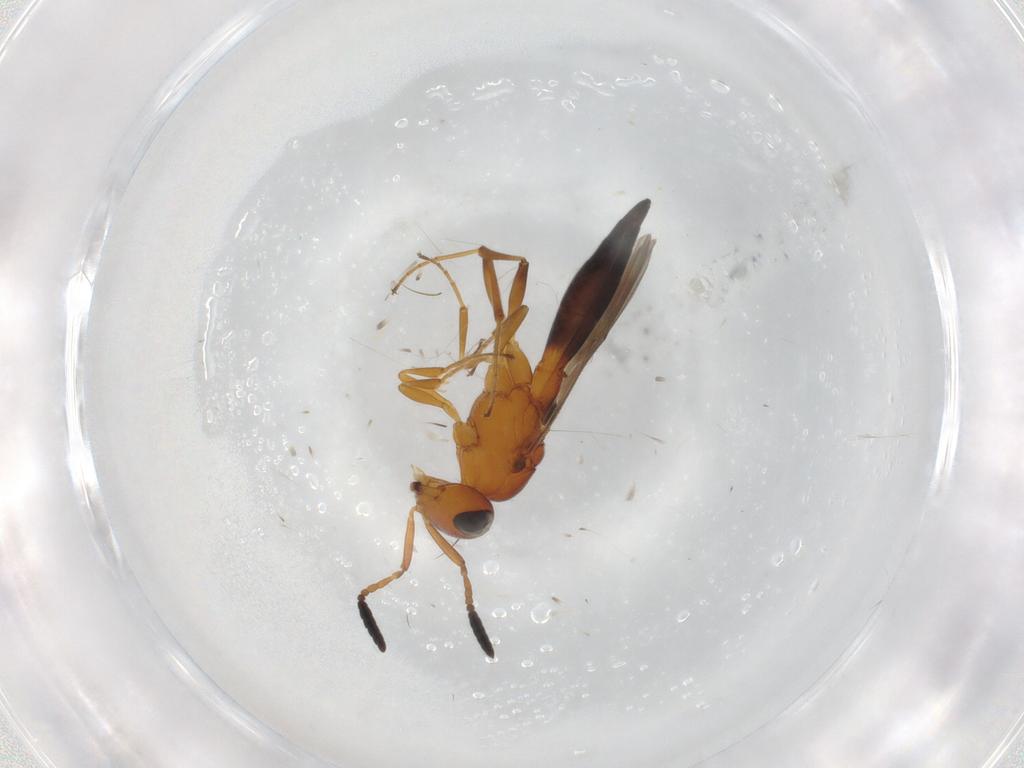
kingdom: Animalia
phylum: Arthropoda
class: Insecta
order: Hymenoptera
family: Scelionidae
